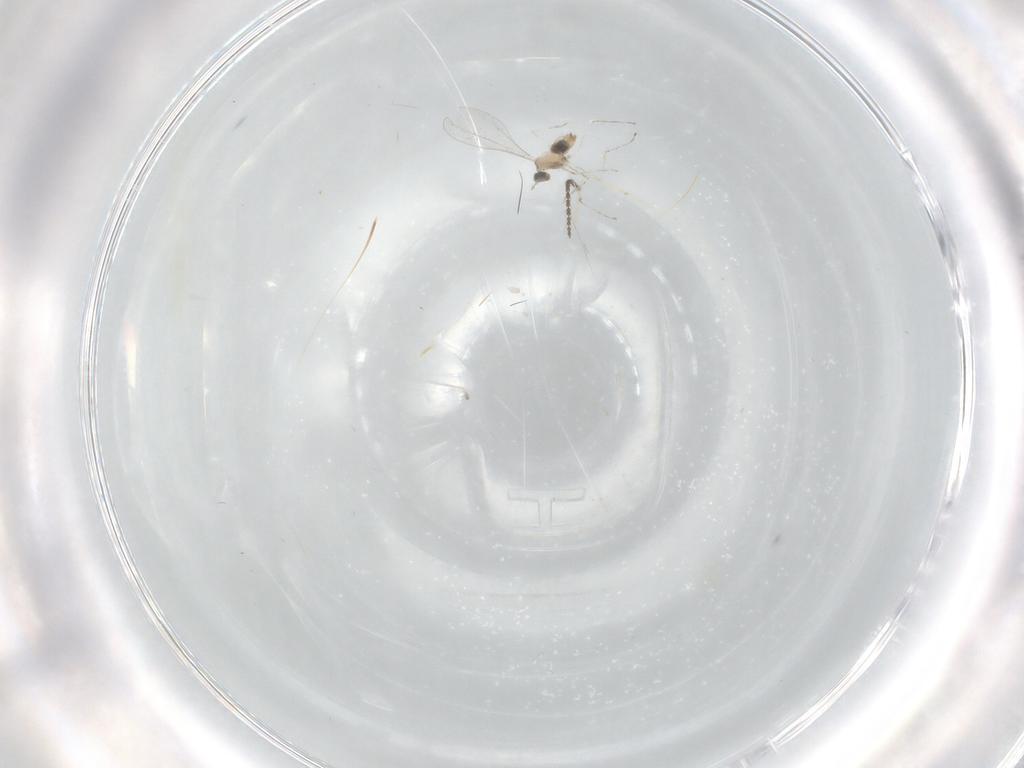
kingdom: Animalia
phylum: Arthropoda
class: Insecta
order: Diptera
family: Cecidomyiidae
